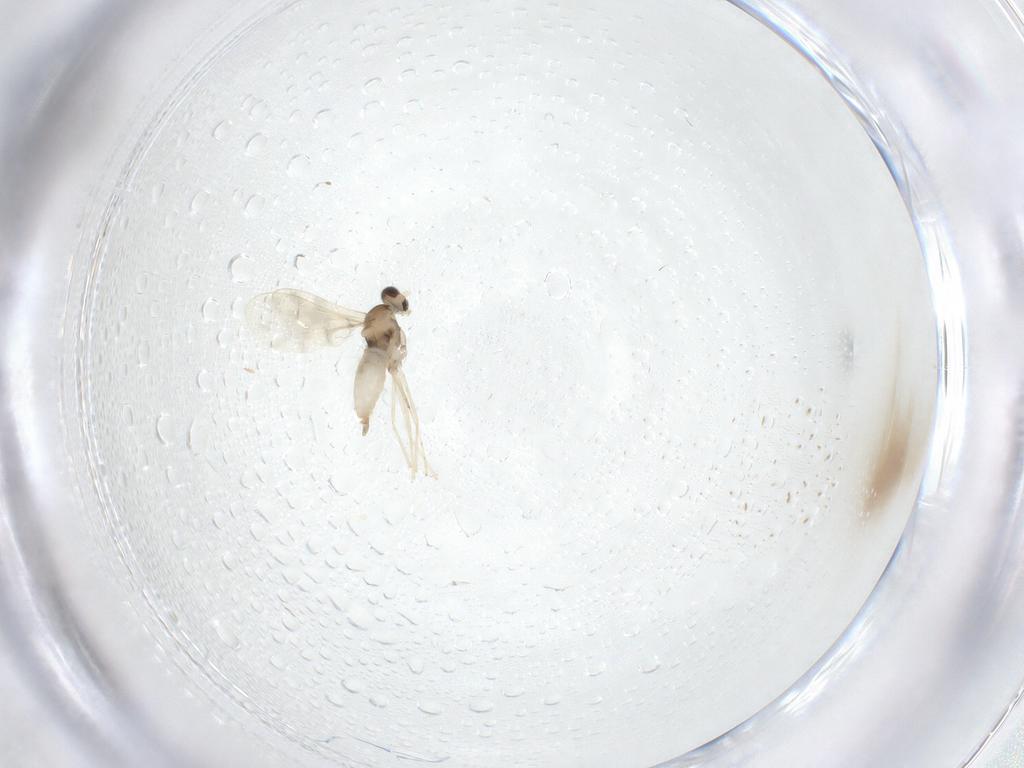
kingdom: Animalia
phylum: Arthropoda
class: Insecta
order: Diptera
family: Cecidomyiidae
